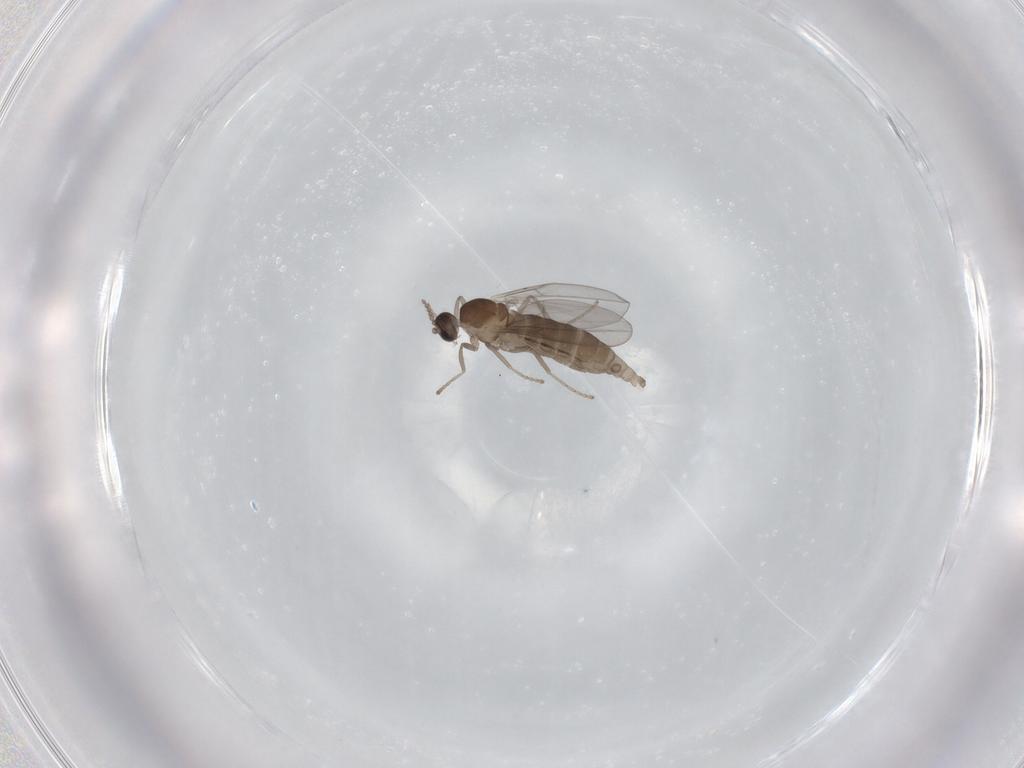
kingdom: Animalia
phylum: Arthropoda
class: Insecta
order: Diptera
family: Cecidomyiidae
